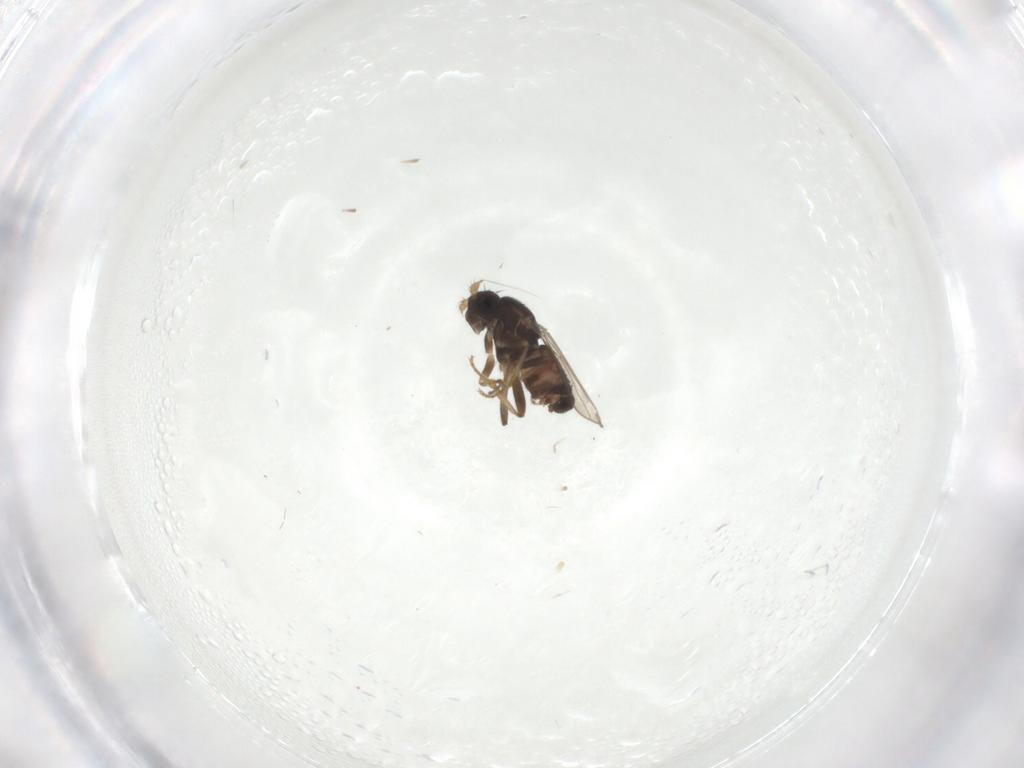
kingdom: Animalia
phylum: Arthropoda
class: Insecta
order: Diptera
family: Sphaeroceridae
